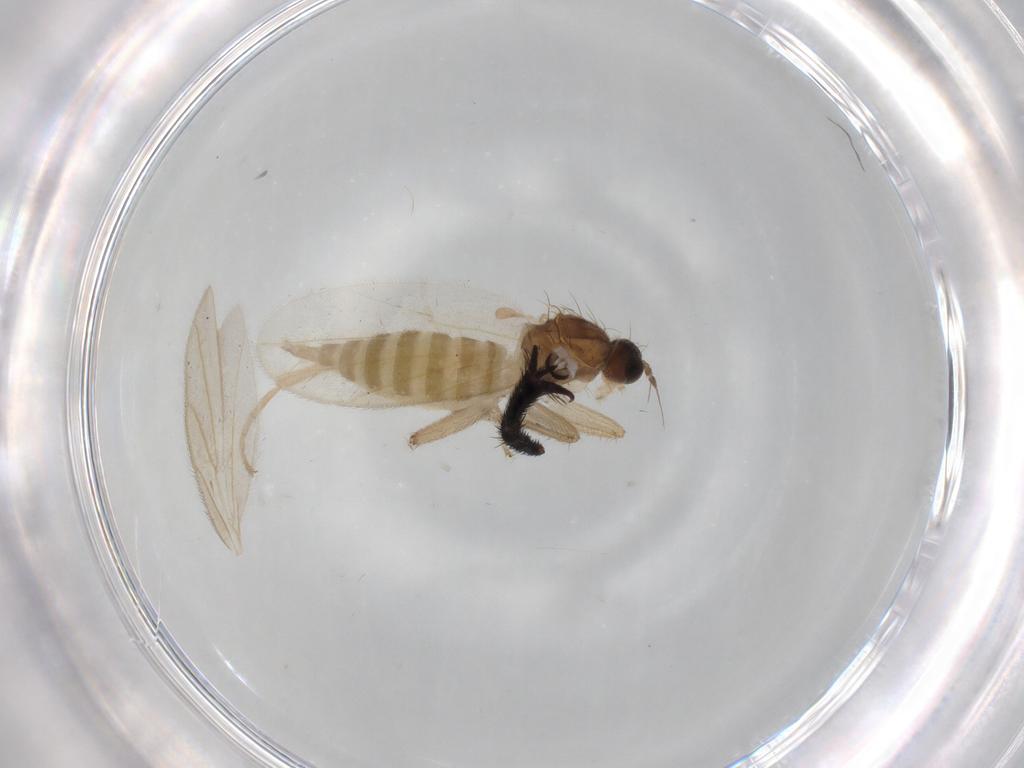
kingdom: Animalia
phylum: Arthropoda
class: Insecta
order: Diptera
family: Hybotidae
